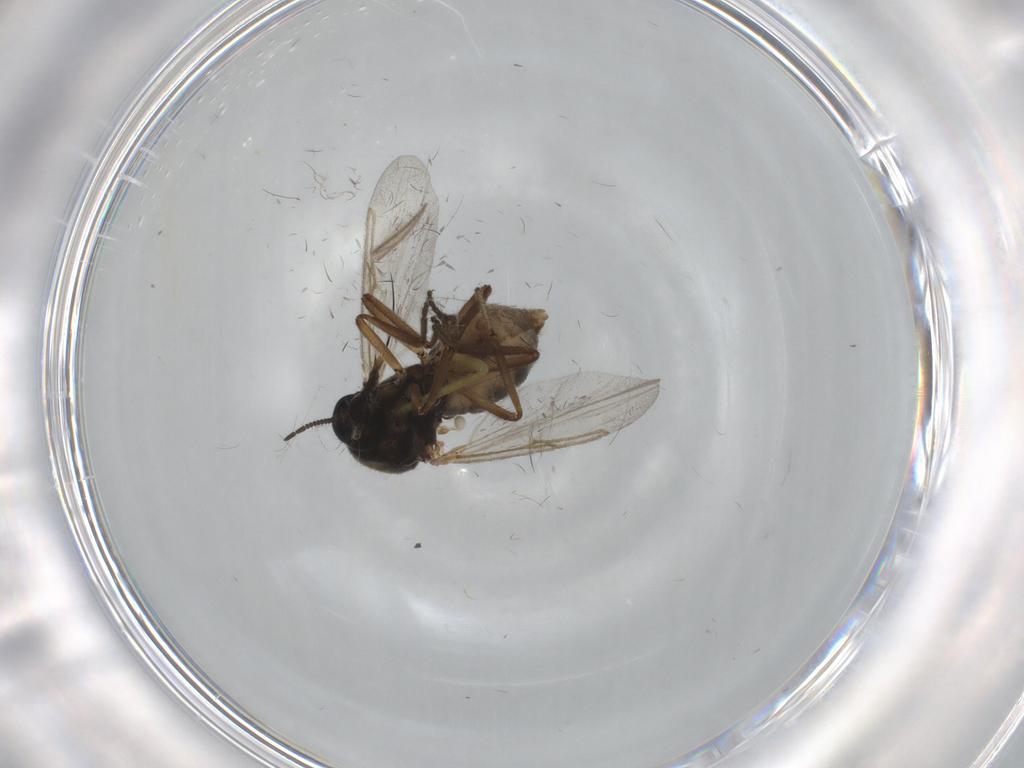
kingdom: Animalia
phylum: Arthropoda
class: Insecta
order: Diptera
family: Ceratopogonidae
